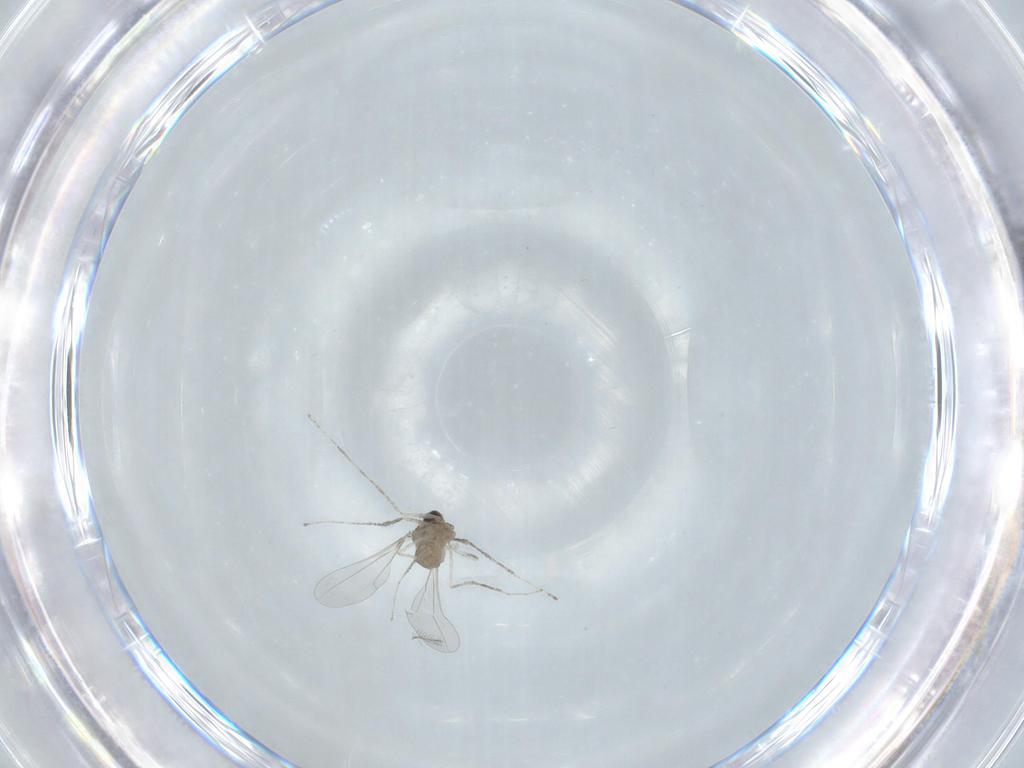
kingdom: Animalia
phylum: Arthropoda
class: Insecta
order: Diptera
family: Cecidomyiidae
